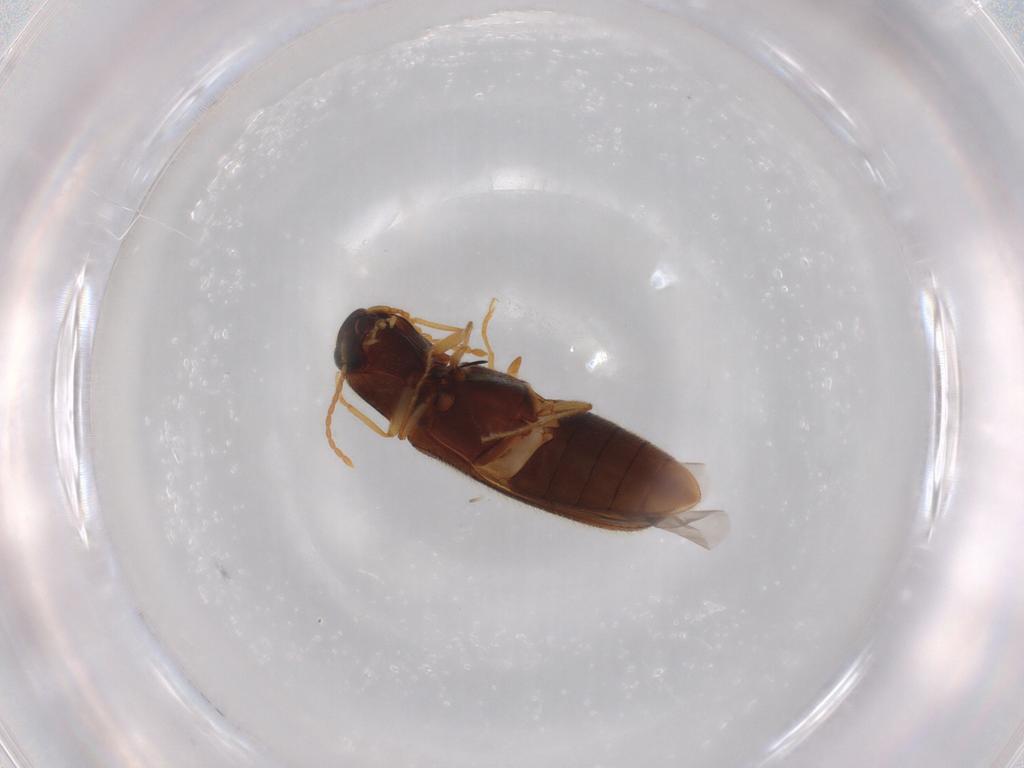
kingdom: Animalia
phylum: Arthropoda
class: Insecta
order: Coleoptera
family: Elateridae
